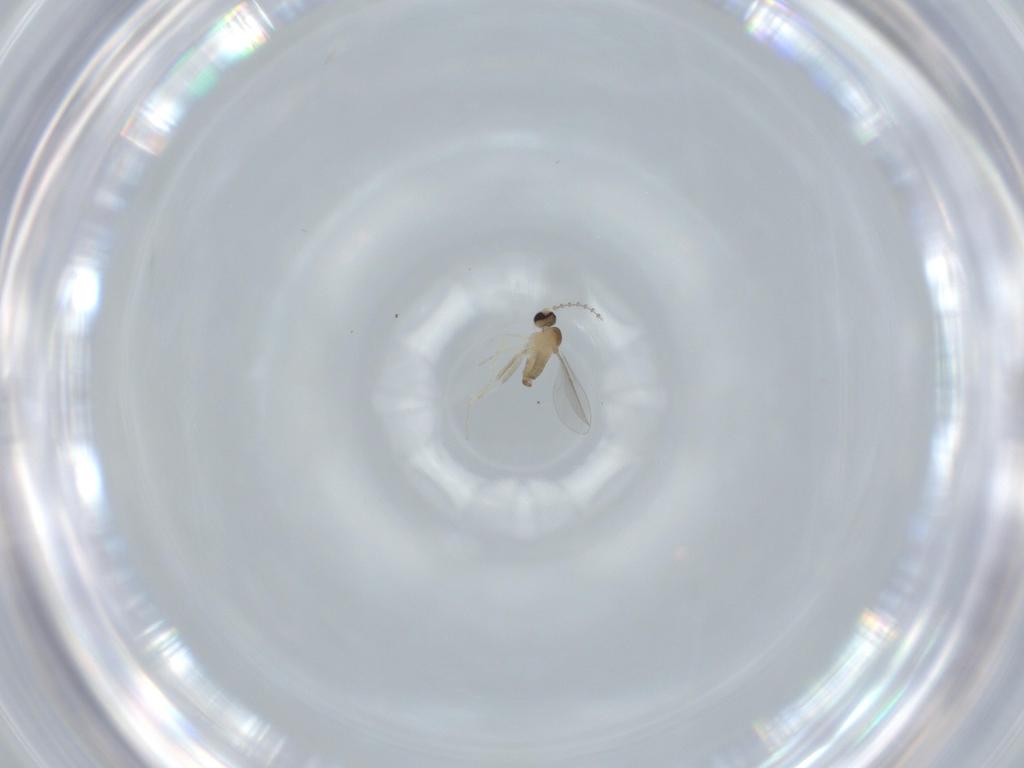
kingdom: Animalia
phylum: Arthropoda
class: Insecta
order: Diptera
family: Cecidomyiidae
